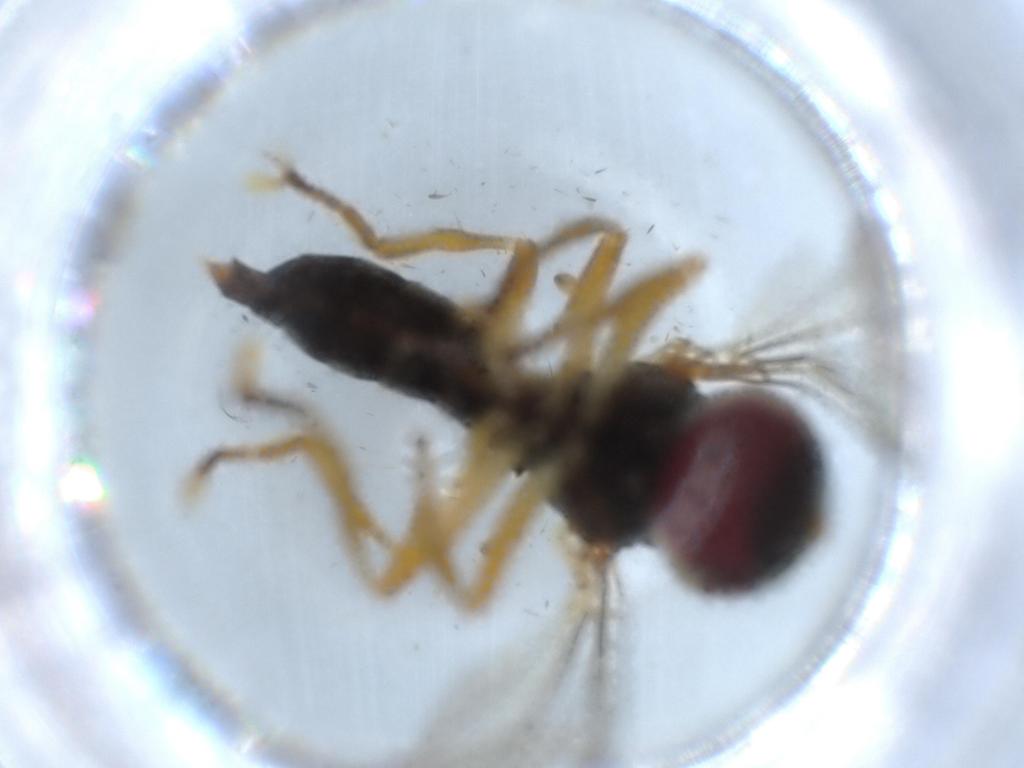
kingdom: Animalia
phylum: Arthropoda
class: Insecta
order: Diptera
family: Pipunculidae
